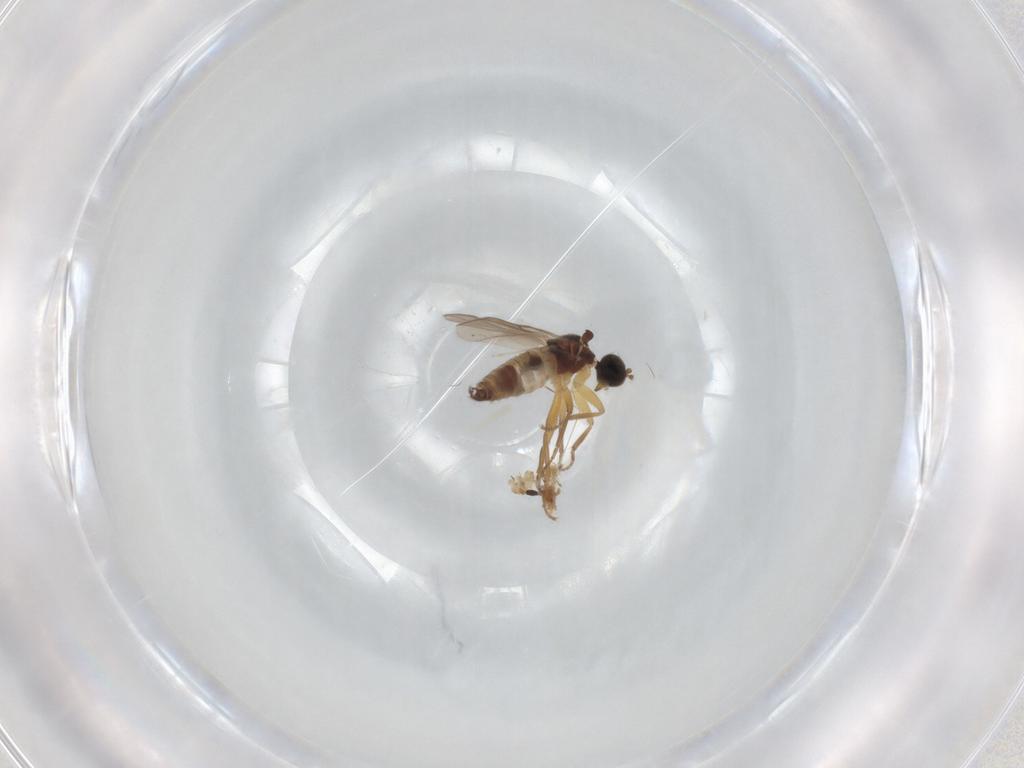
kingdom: Animalia
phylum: Arthropoda
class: Insecta
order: Diptera
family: Hybotidae
